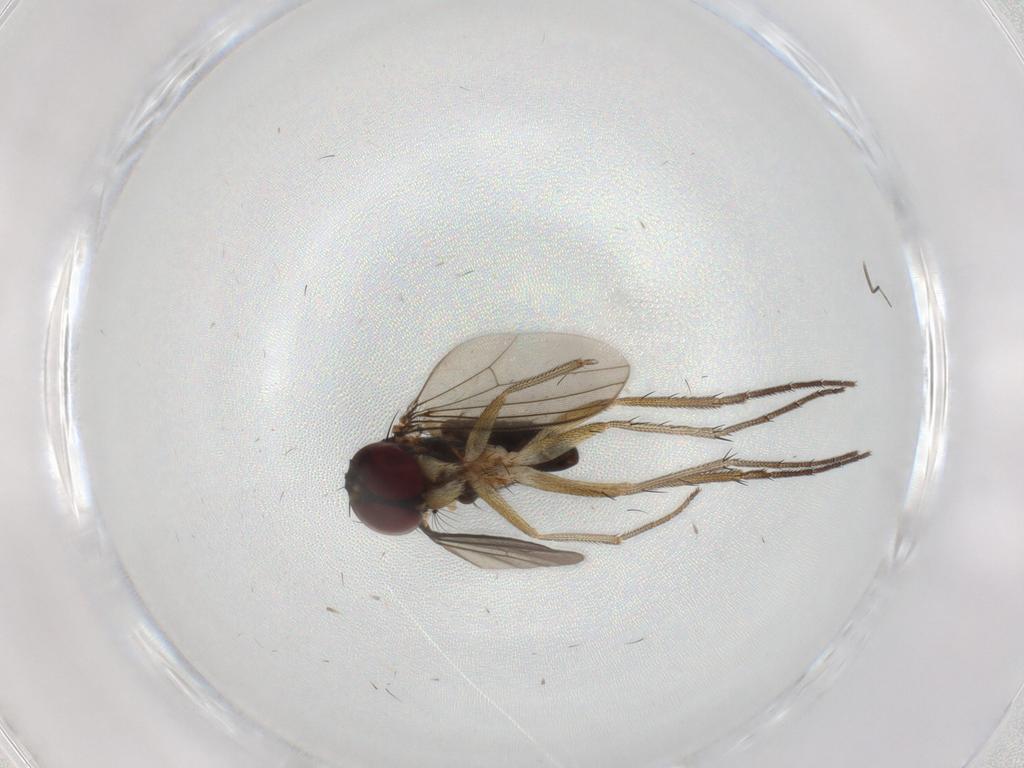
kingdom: Animalia
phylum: Arthropoda
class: Insecta
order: Diptera
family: Dolichopodidae
